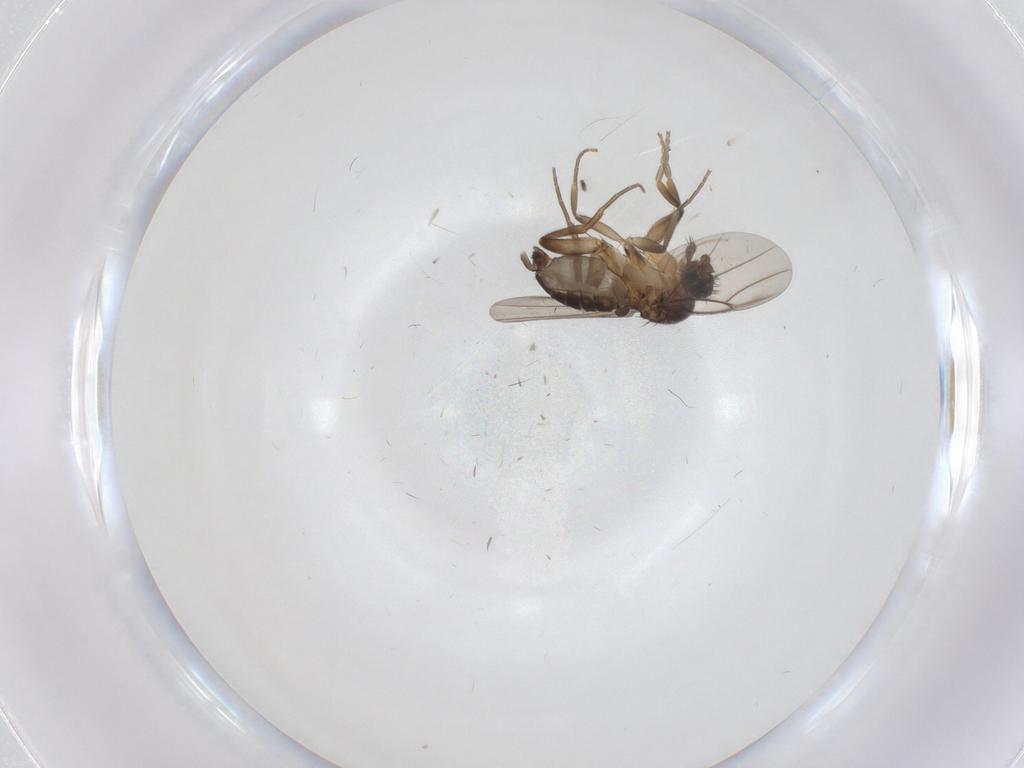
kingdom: Animalia
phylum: Arthropoda
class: Insecta
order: Diptera
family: Phoridae
